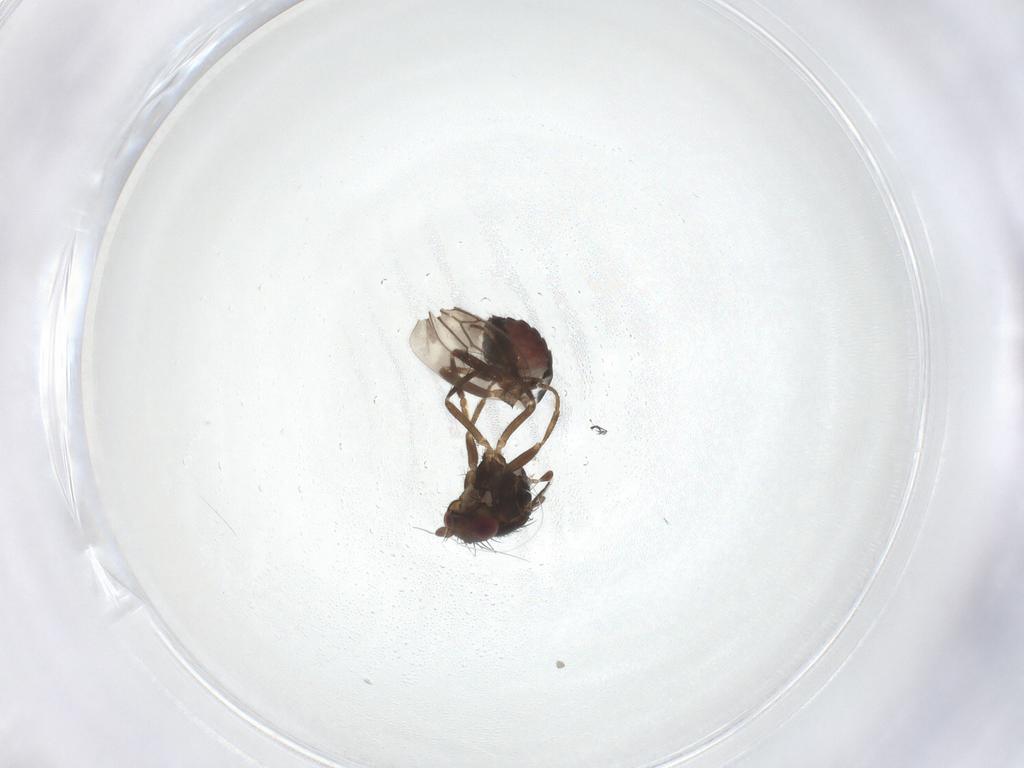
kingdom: Animalia
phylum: Arthropoda
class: Insecta
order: Diptera
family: Sphaeroceridae
